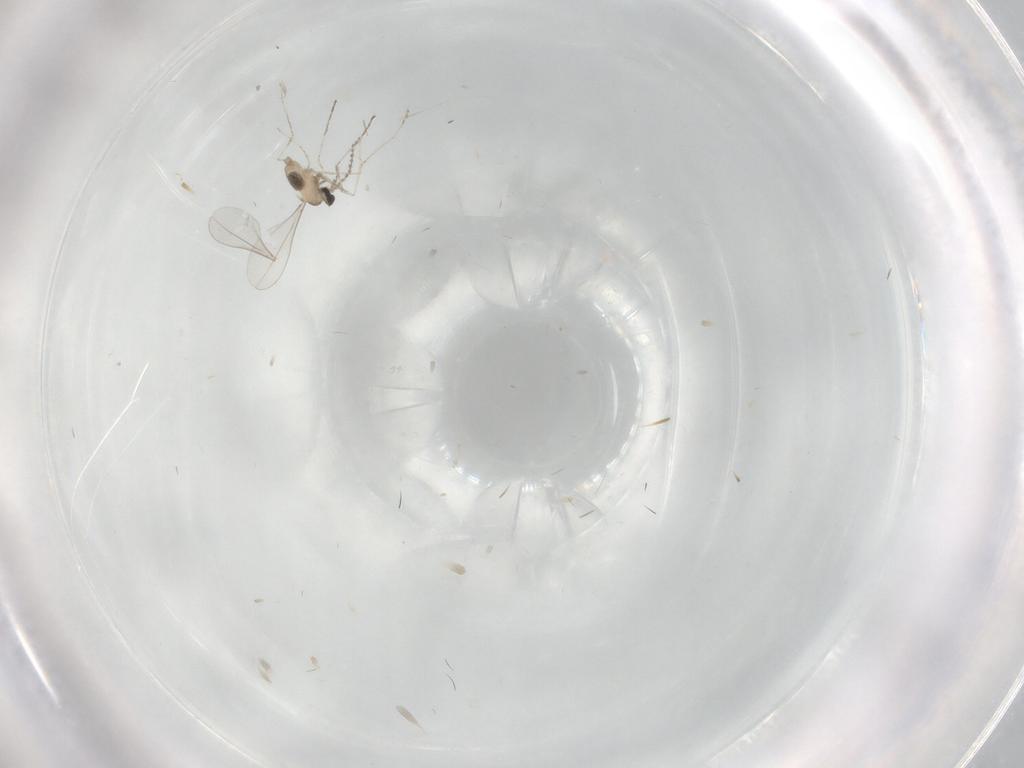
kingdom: Animalia
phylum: Arthropoda
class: Insecta
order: Diptera
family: Cecidomyiidae
